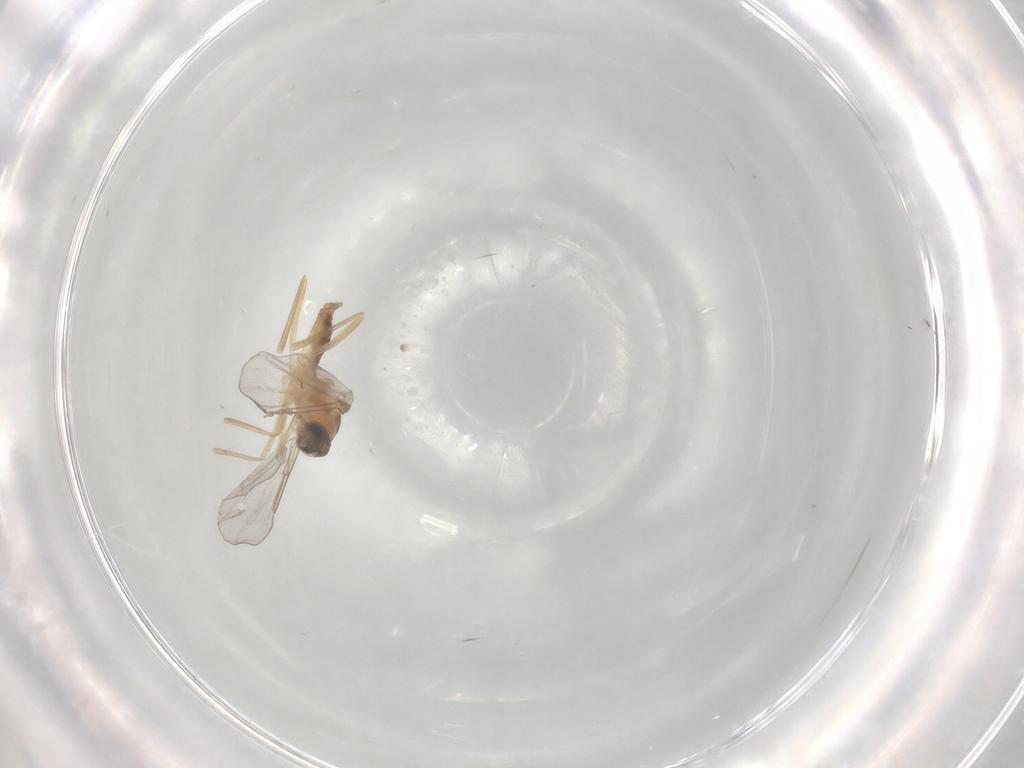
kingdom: Animalia
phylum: Arthropoda
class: Insecta
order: Diptera
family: Cecidomyiidae
